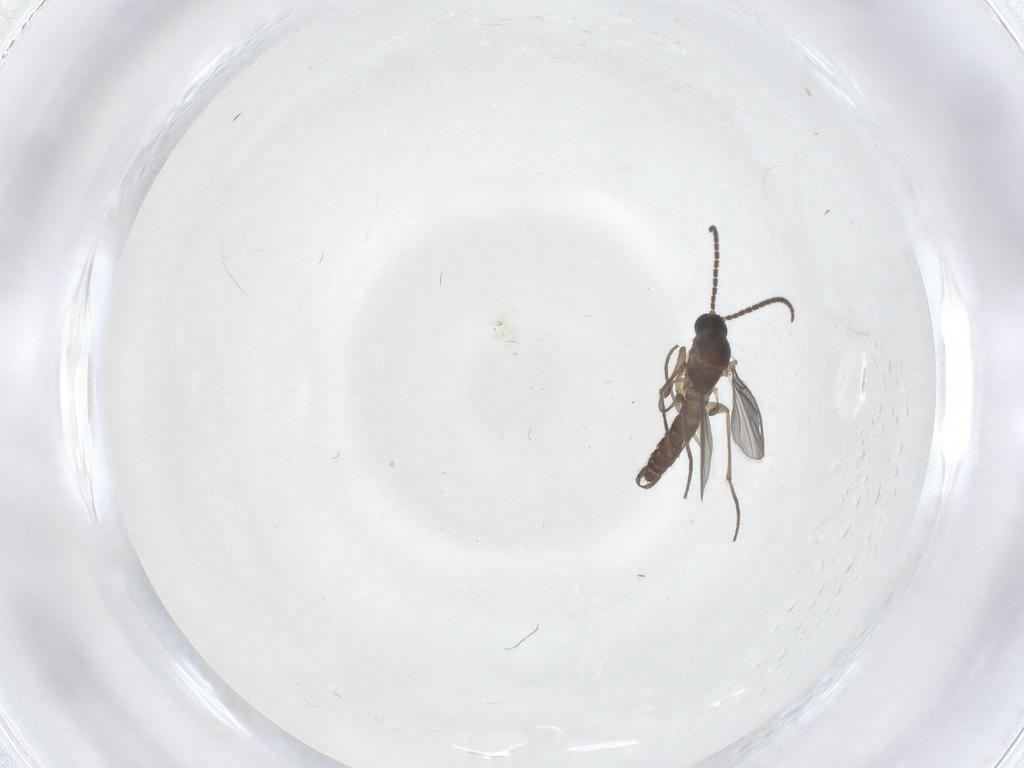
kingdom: Animalia
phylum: Arthropoda
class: Insecta
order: Diptera
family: Sciaridae
